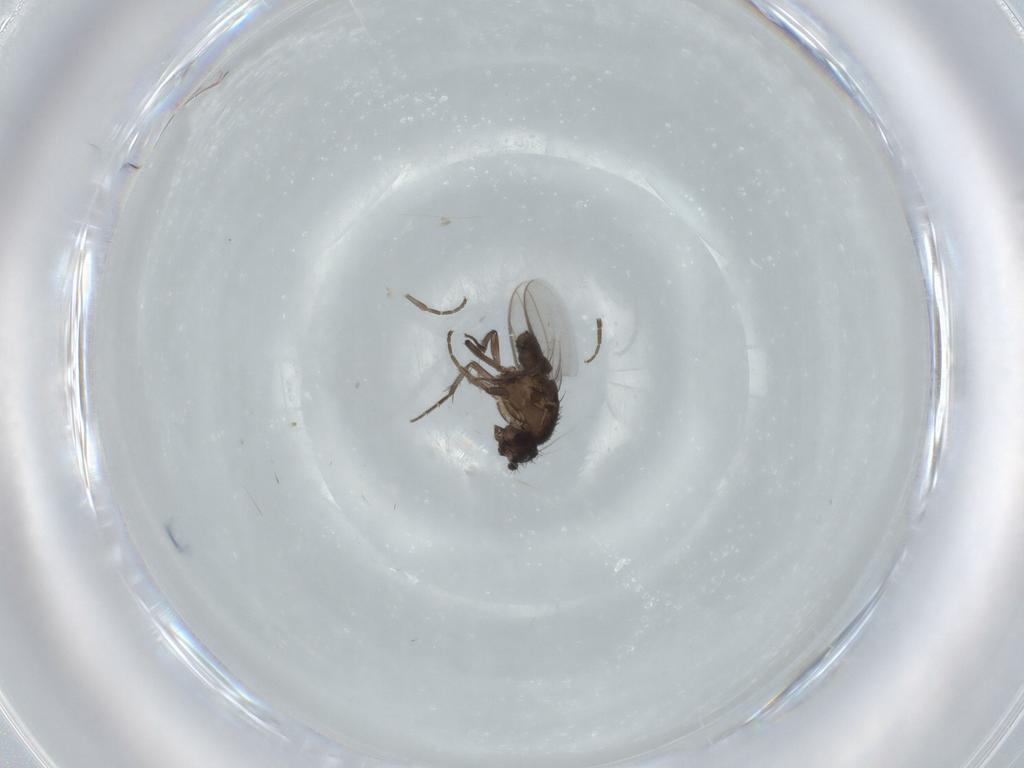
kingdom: Animalia
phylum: Arthropoda
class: Insecta
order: Diptera
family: Sphaeroceridae
